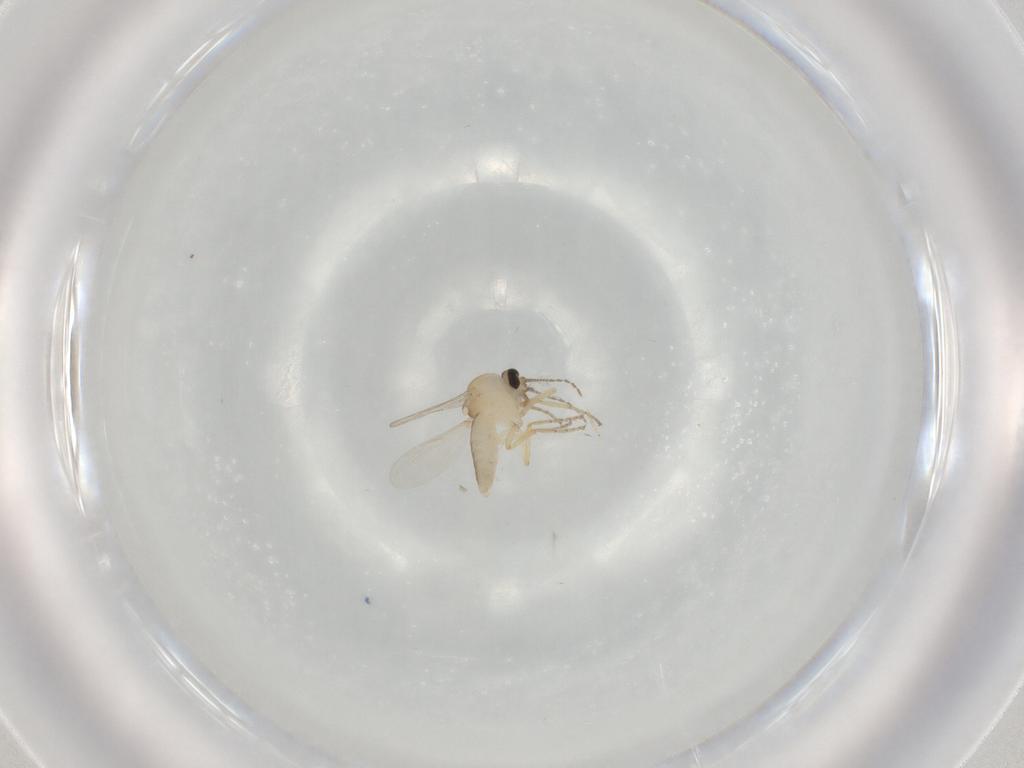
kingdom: Animalia
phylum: Arthropoda
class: Insecta
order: Diptera
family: Ceratopogonidae
